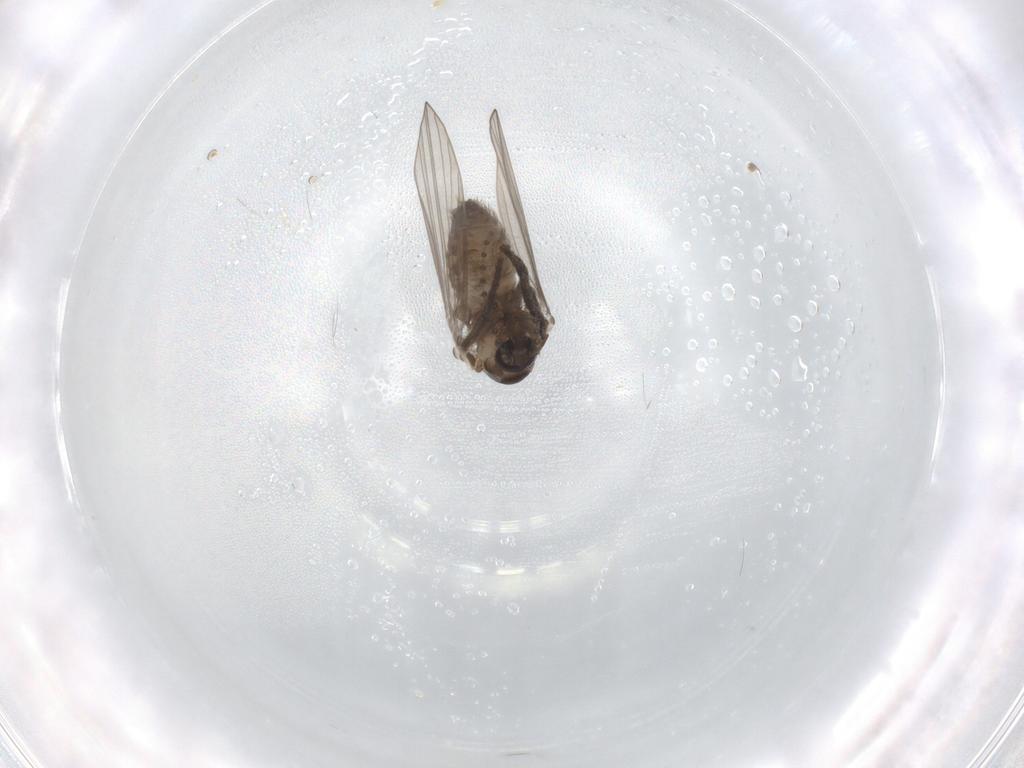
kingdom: Animalia
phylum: Arthropoda
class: Insecta
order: Diptera
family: Psychodidae
